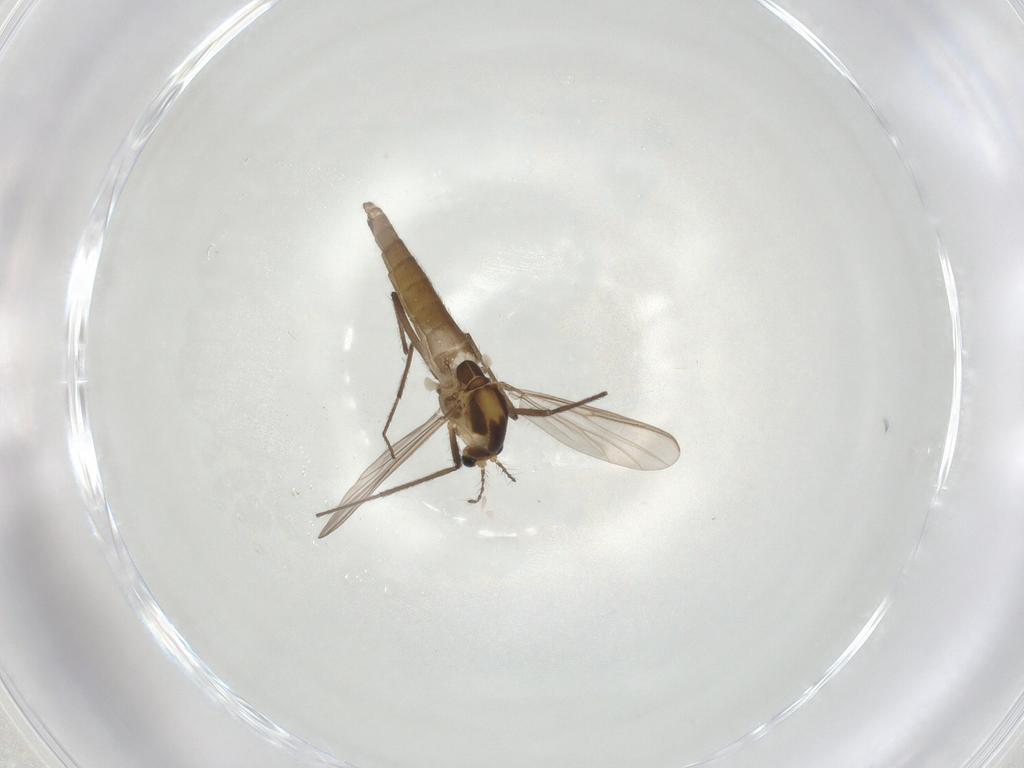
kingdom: Animalia
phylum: Arthropoda
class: Insecta
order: Diptera
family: Chironomidae
